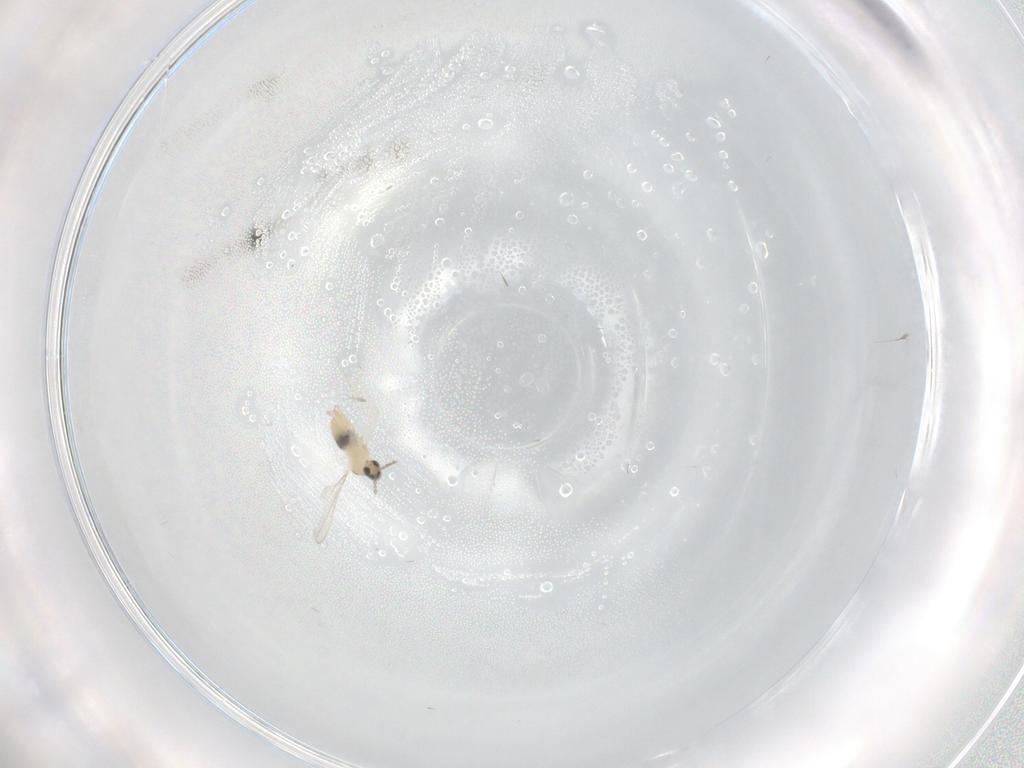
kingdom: Animalia
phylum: Arthropoda
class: Insecta
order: Diptera
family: Cecidomyiidae
